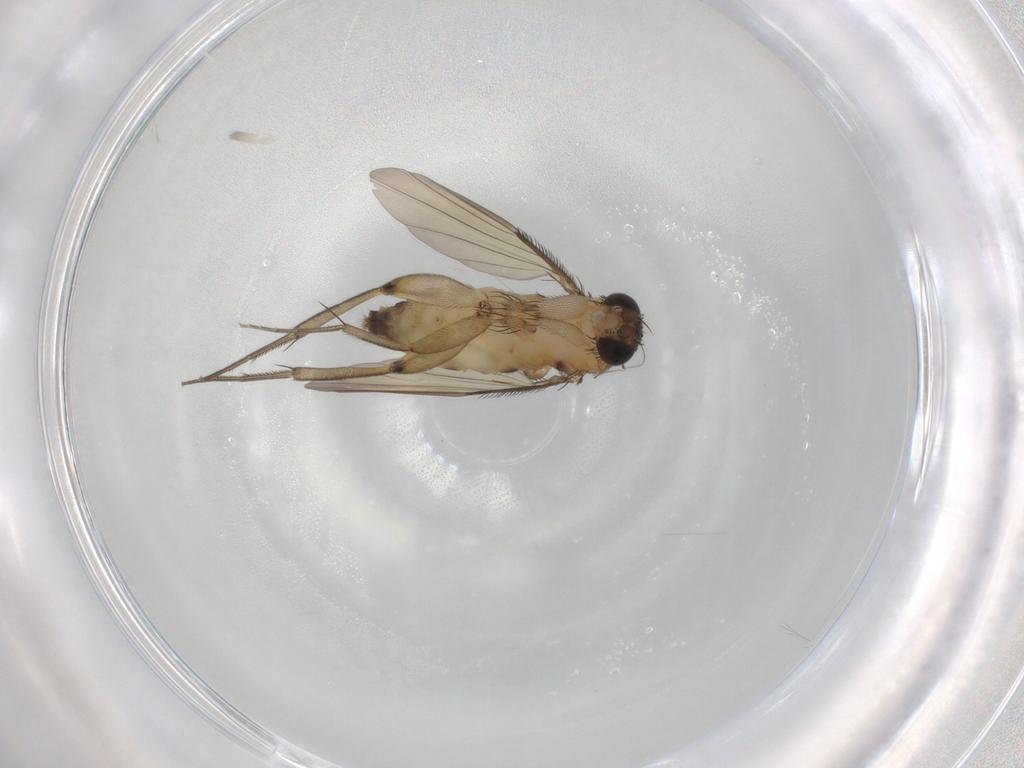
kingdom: Animalia
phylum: Arthropoda
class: Insecta
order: Diptera
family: Phoridae
